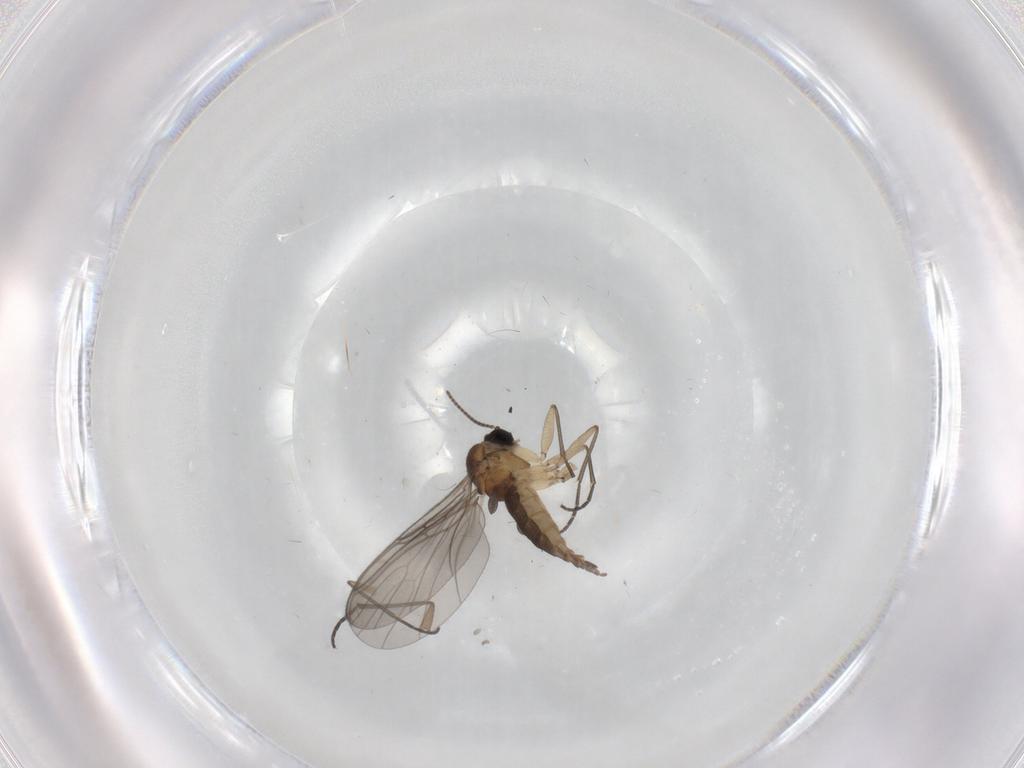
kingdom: Animalia
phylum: Arthropoda
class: Insecta
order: Diptera
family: Sciaridae
